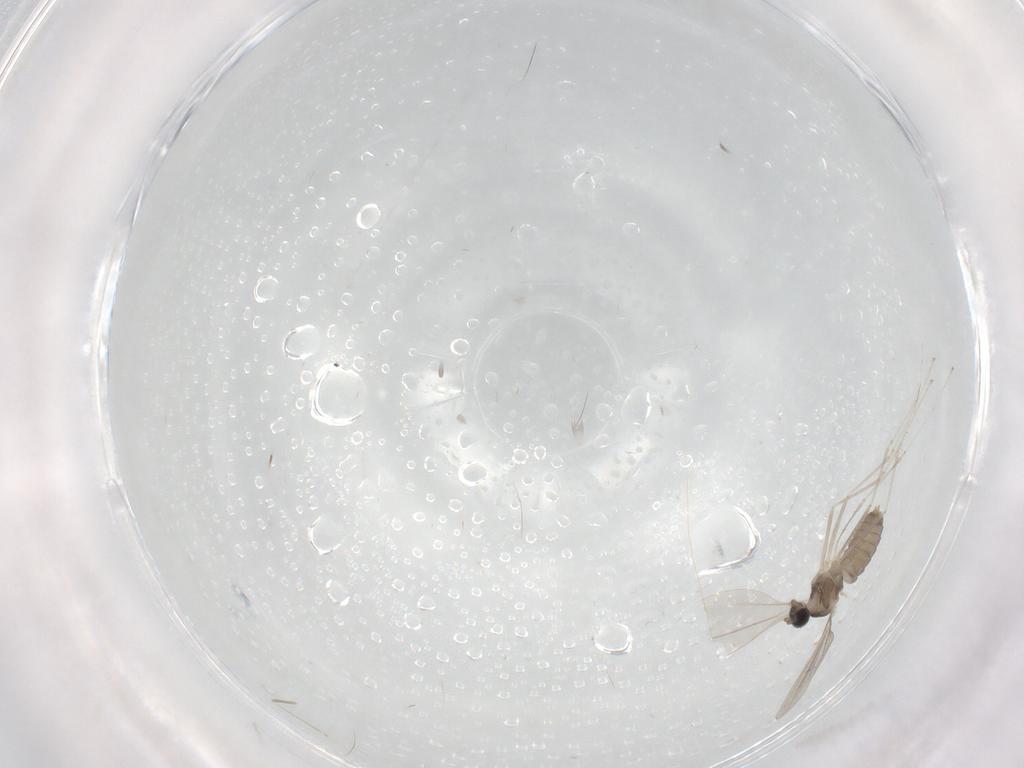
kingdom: Animalia
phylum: Arthropoda
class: Insecta
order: Diptera
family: Cecidomyiidae
